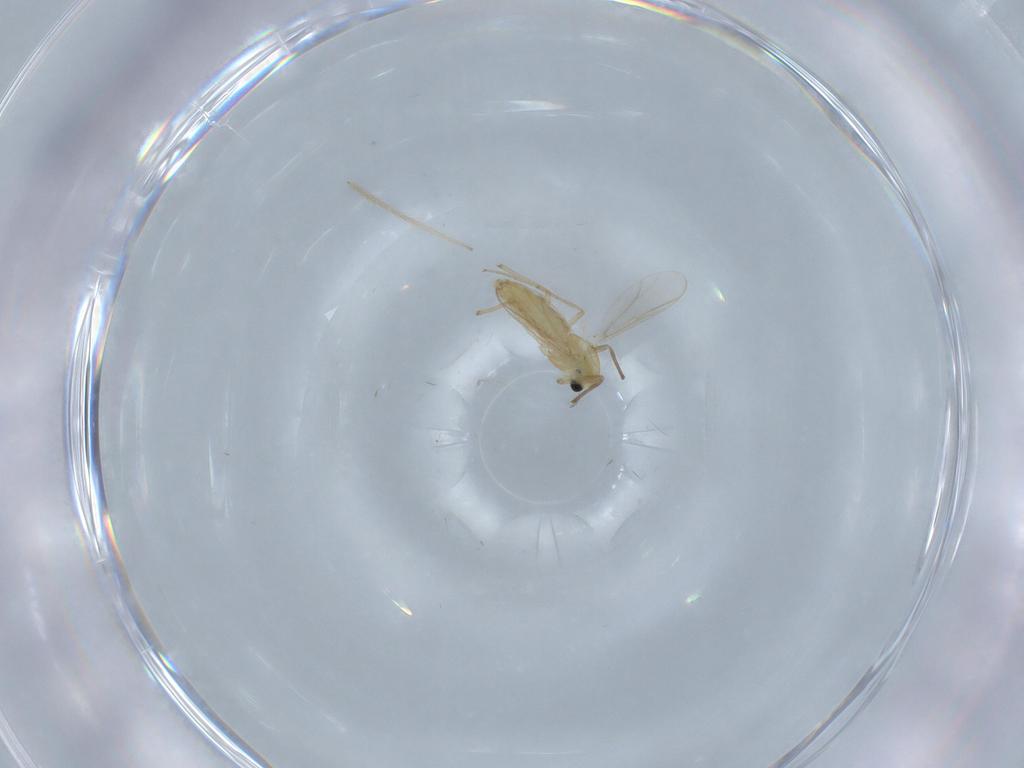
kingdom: Animalia
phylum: Arthropoda
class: Insecta
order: Diptera
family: Chironomidae
